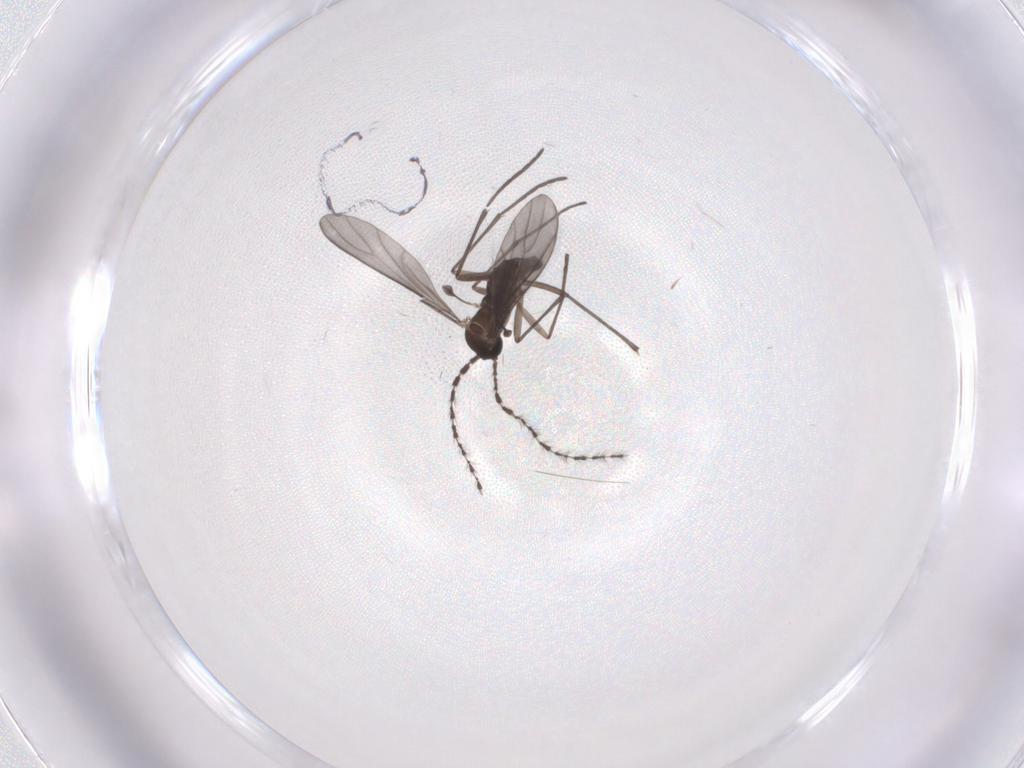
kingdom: Animalia
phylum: Arthropoda
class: Insecta
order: Diptera
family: Sciaridae
